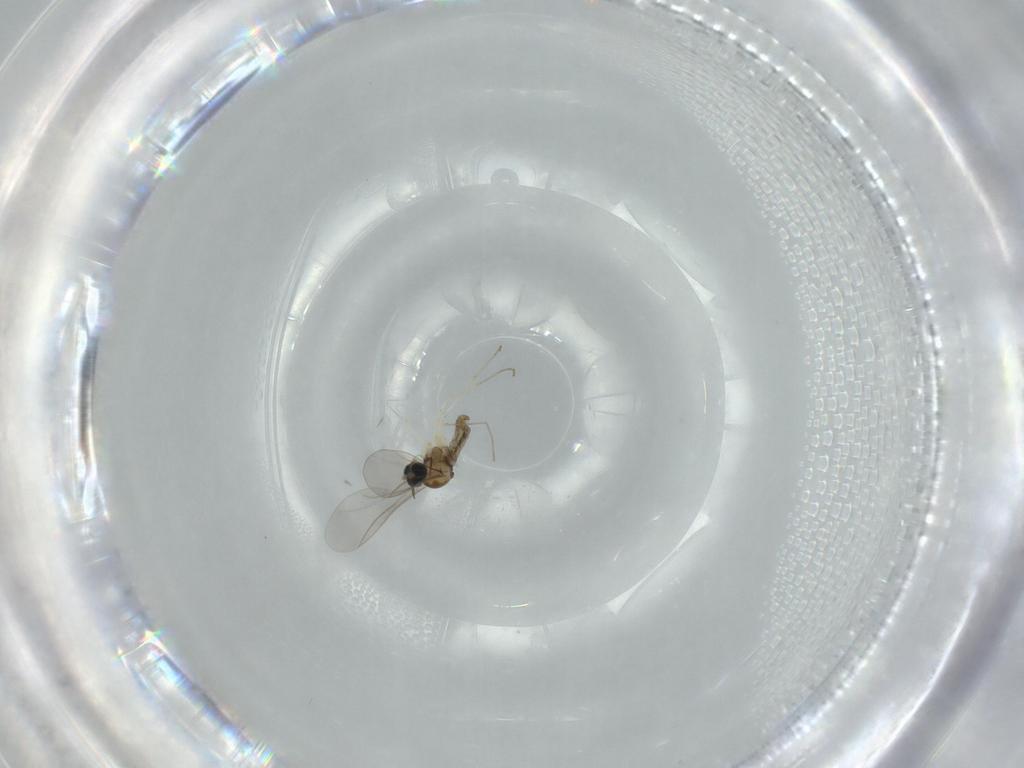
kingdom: Animalia
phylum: Arthropoda
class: Insecta
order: Diptera
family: Cecidomyiidae
